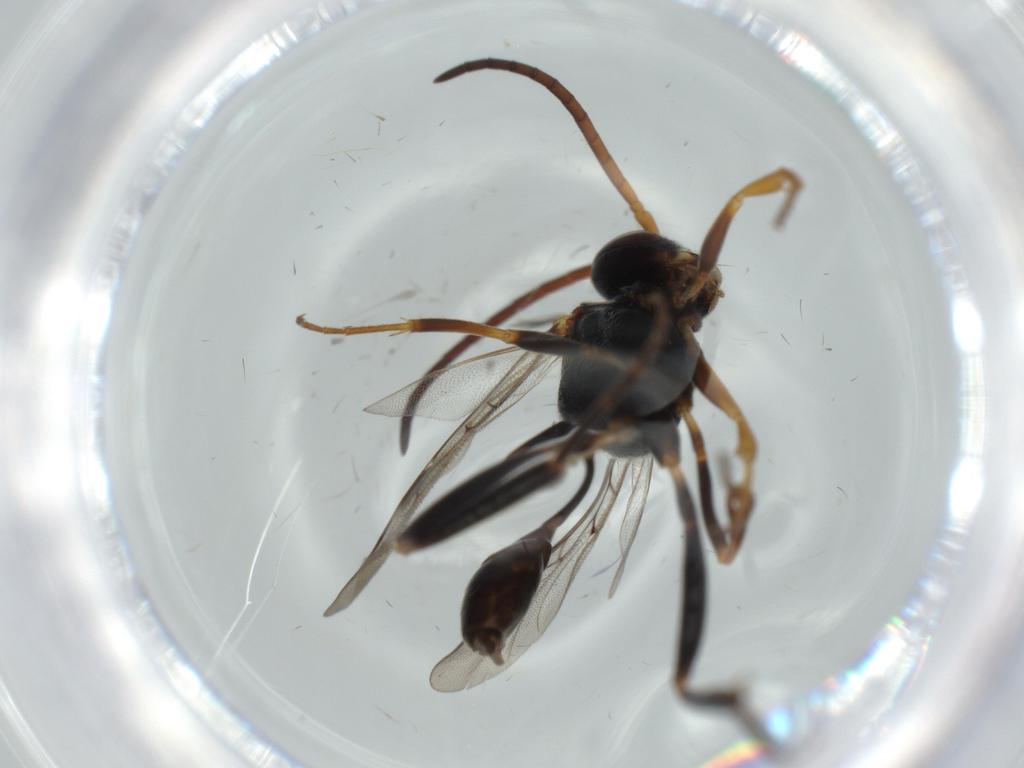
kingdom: Animalia
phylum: Arthropoda
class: Insecta
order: Hymenoptera
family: Evaniidae
